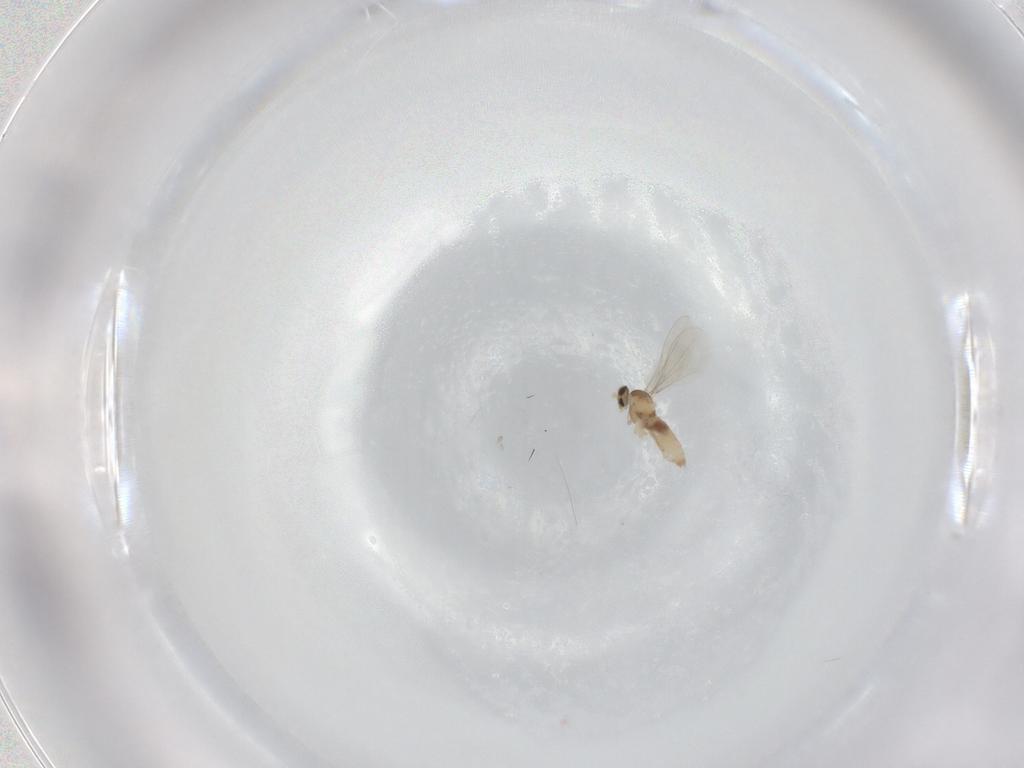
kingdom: Animalia
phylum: Arthropoda
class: Insecta
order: Diptera
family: Cecidomyiidae
